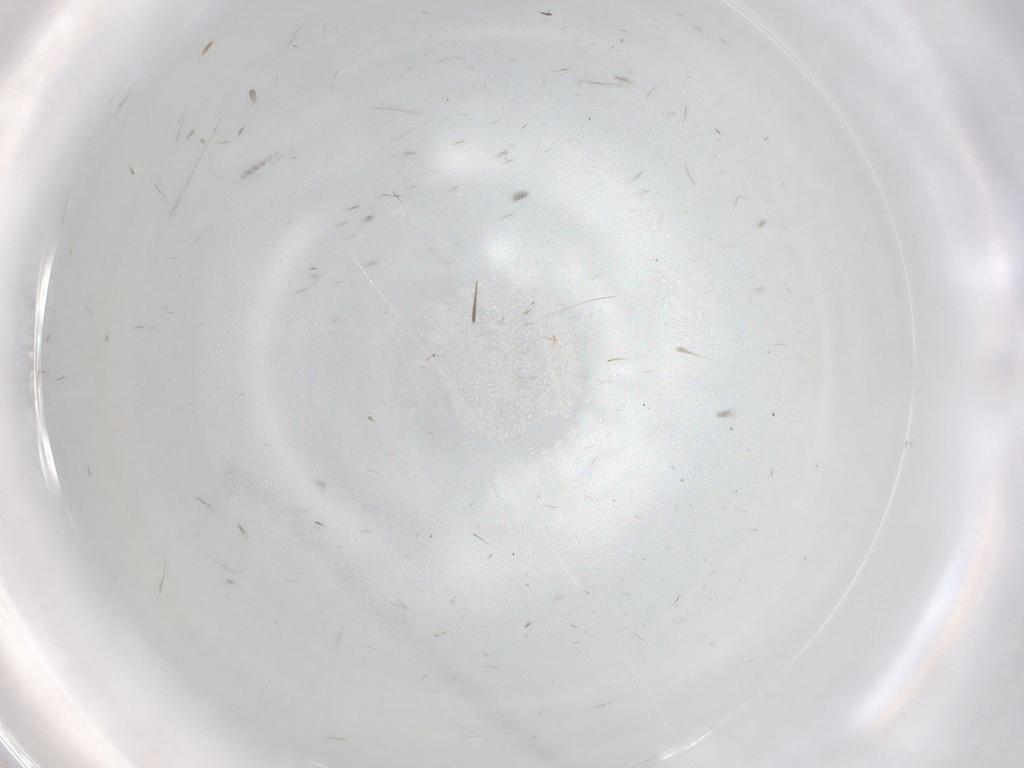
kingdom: Animalia
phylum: Arthropoda
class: Insecta
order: Hemiptera
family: Cixiidae
